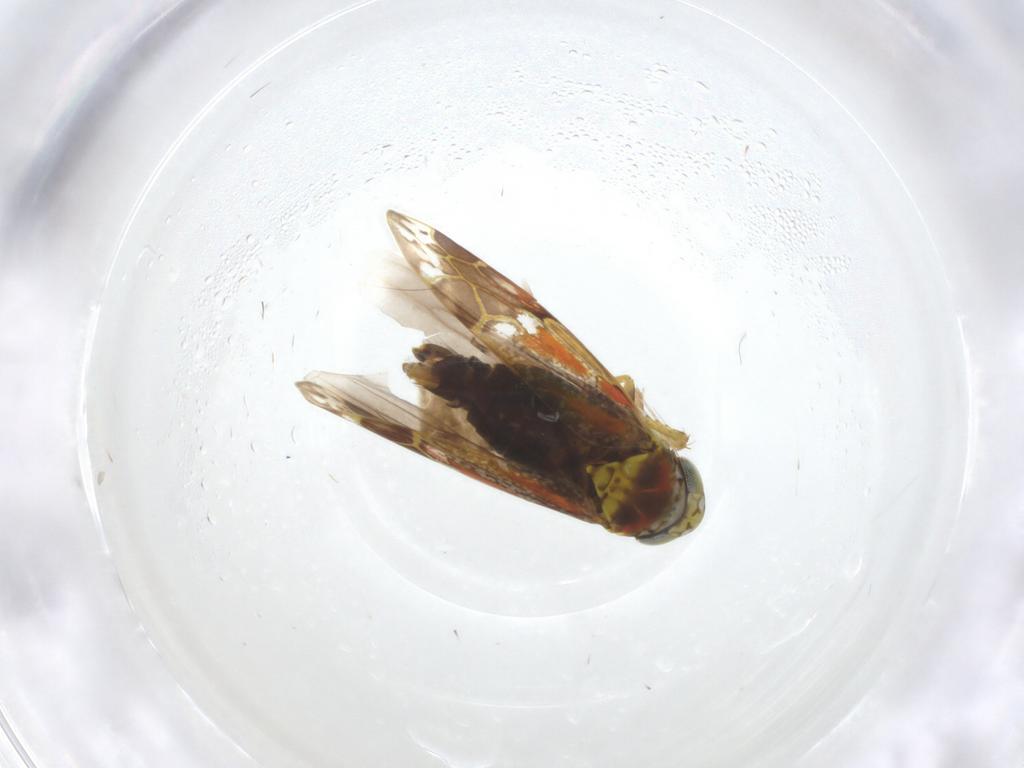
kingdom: Animalia
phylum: Arthropoda
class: Insecta
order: Hemiptera
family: Cicadellidae
